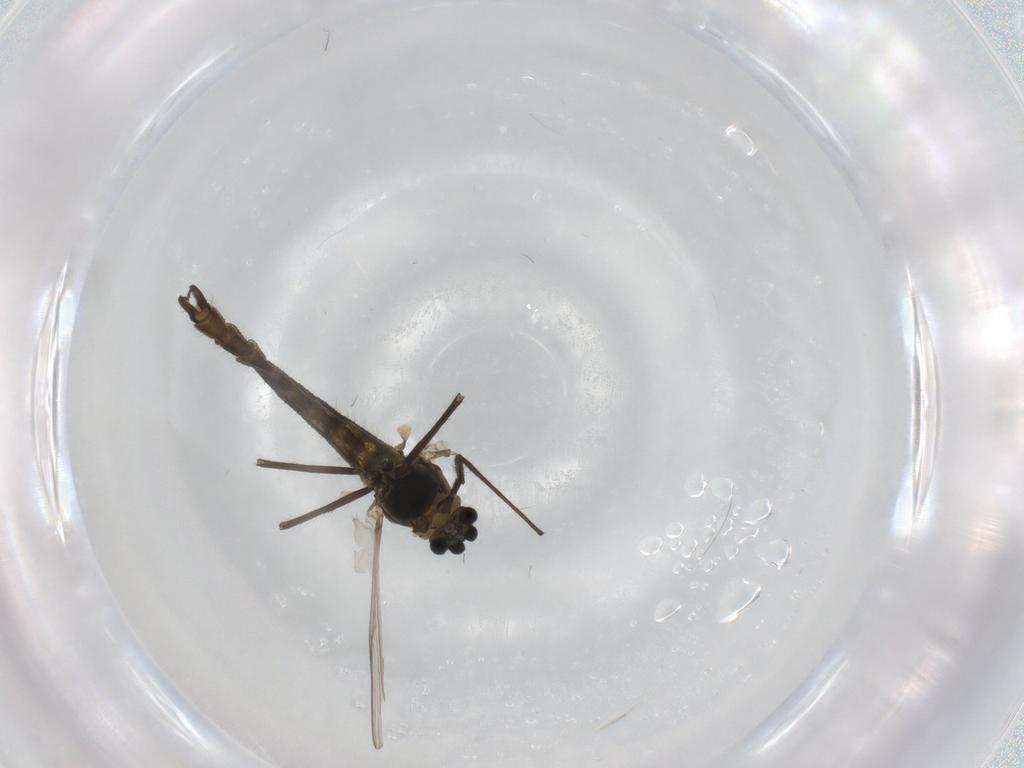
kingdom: Animalia
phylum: Arthropoda
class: Insecta
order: Diptera
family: Chironomidae
